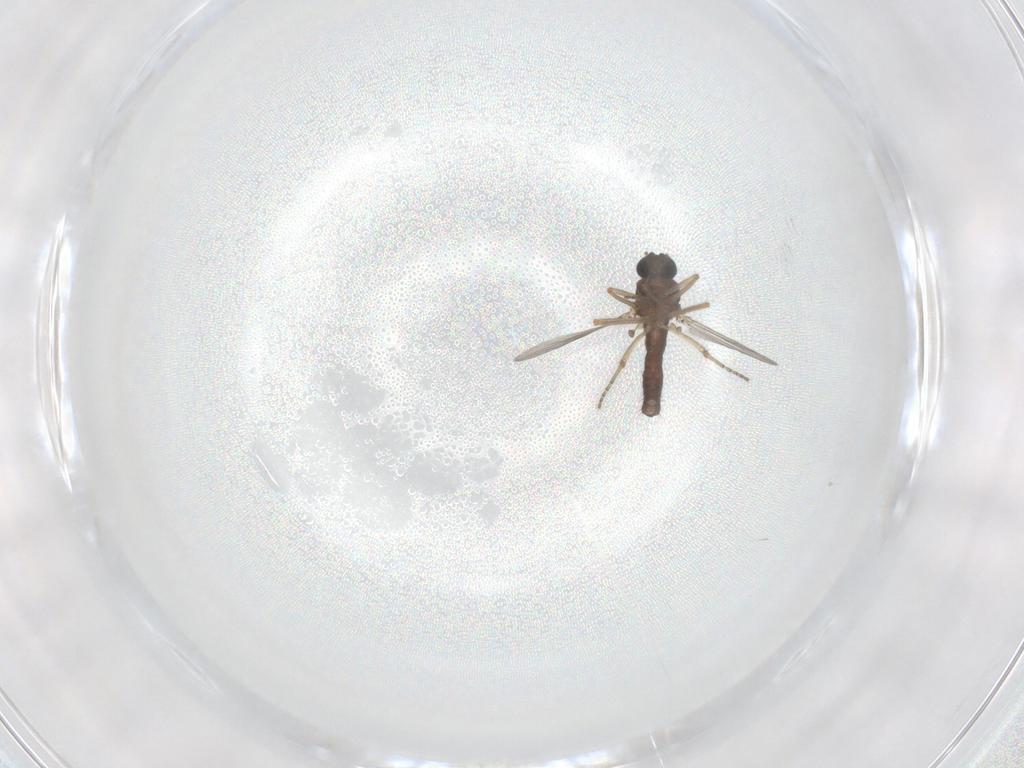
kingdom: Animalia
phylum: Arthropoda
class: Insecta
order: Diptera
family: Ceratopogonidae
